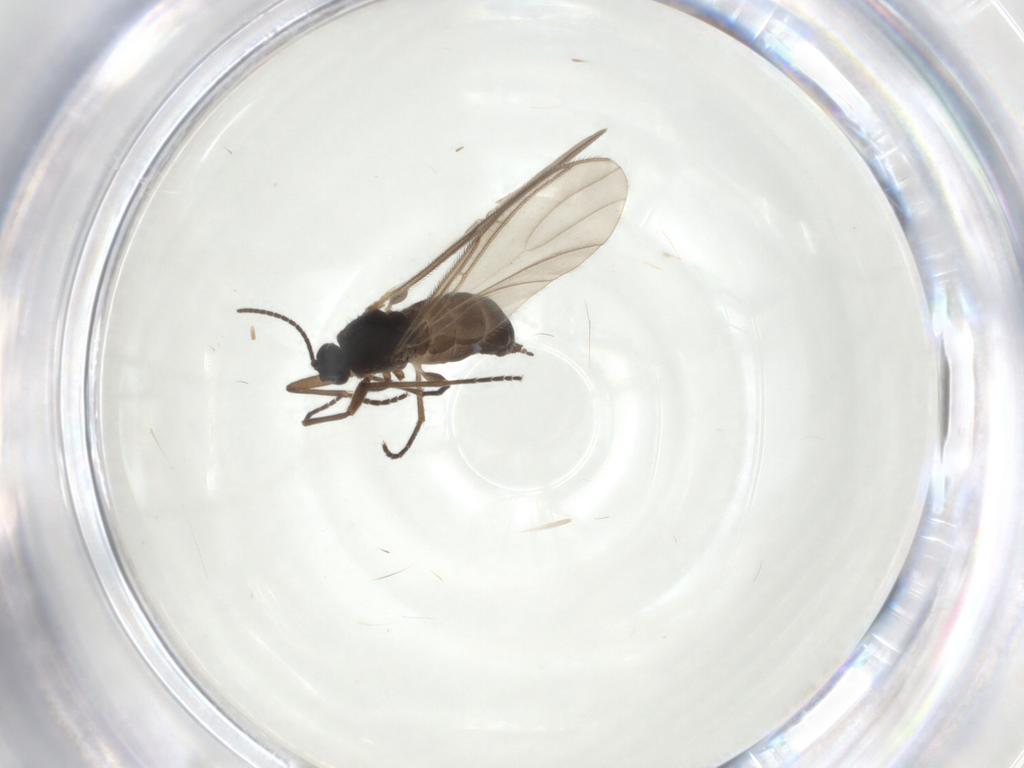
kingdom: Animalia
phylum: Arthropoda
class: Insecta
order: Diptera
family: Sciaridae
